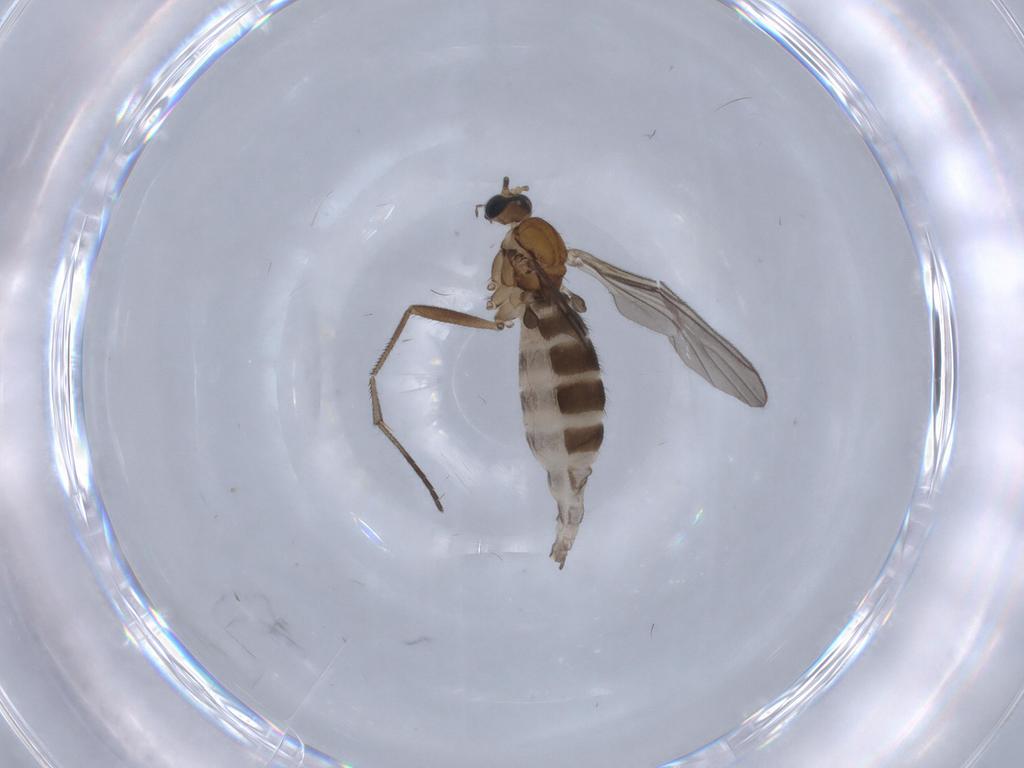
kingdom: Animalia
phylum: Arthropoda
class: Insecta
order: Diptera
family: Sciaridae
